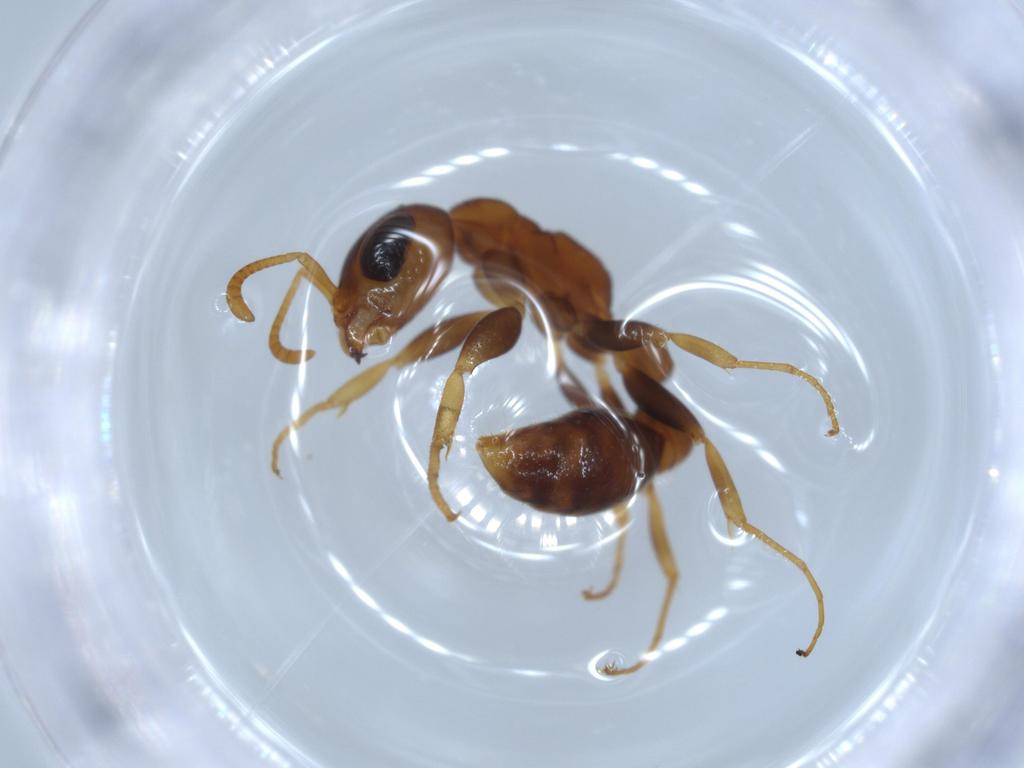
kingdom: Animalia
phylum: Arthropoda
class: Insecta
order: Hymenoptera
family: Formicidae
